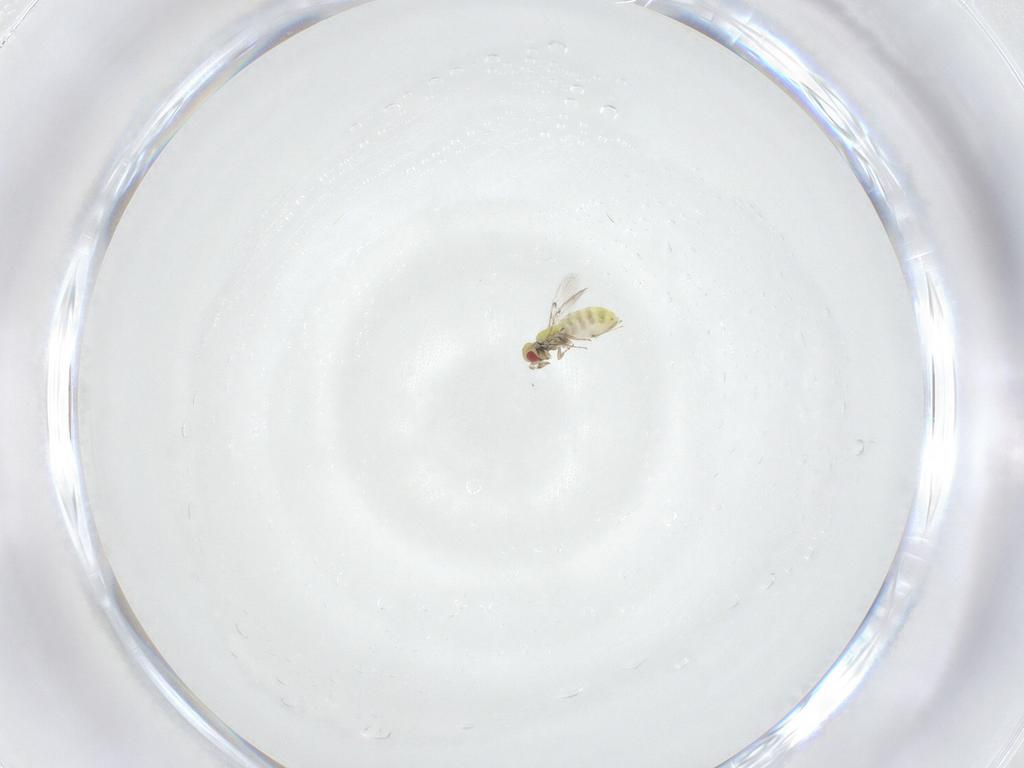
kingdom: Animalia
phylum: Arthropoda
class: Insecta
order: Hymenoptera
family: Trichogrammatidae
